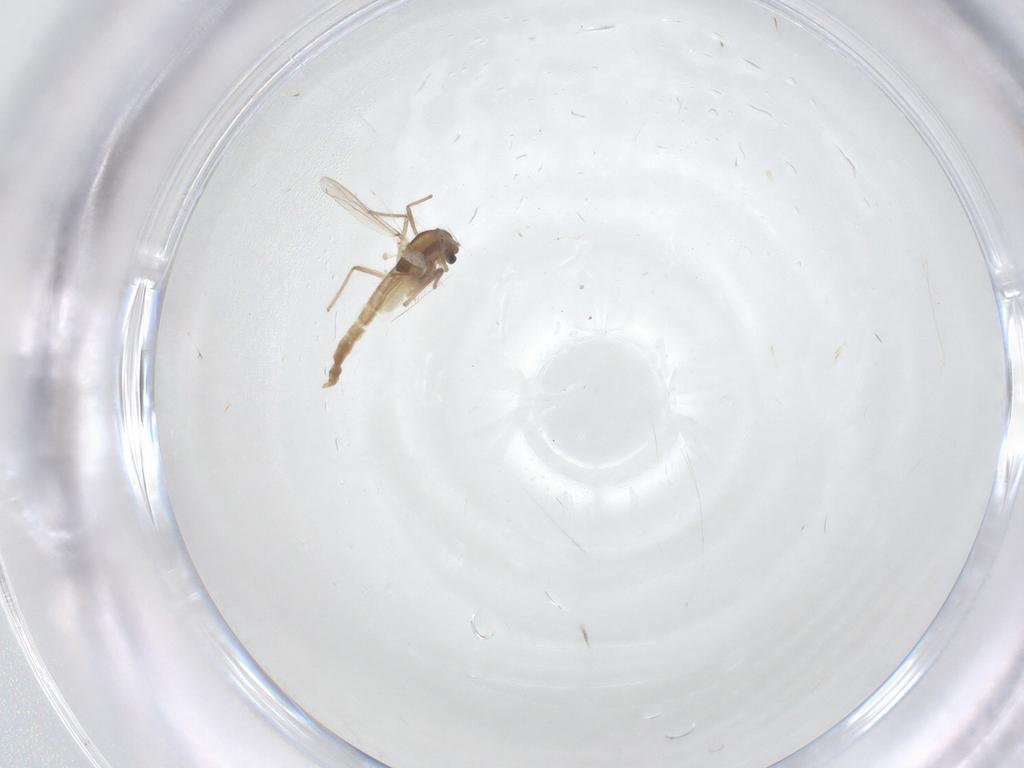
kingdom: Animalia
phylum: Arthropoda
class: Insecta
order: Diptera
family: Chironomidae
